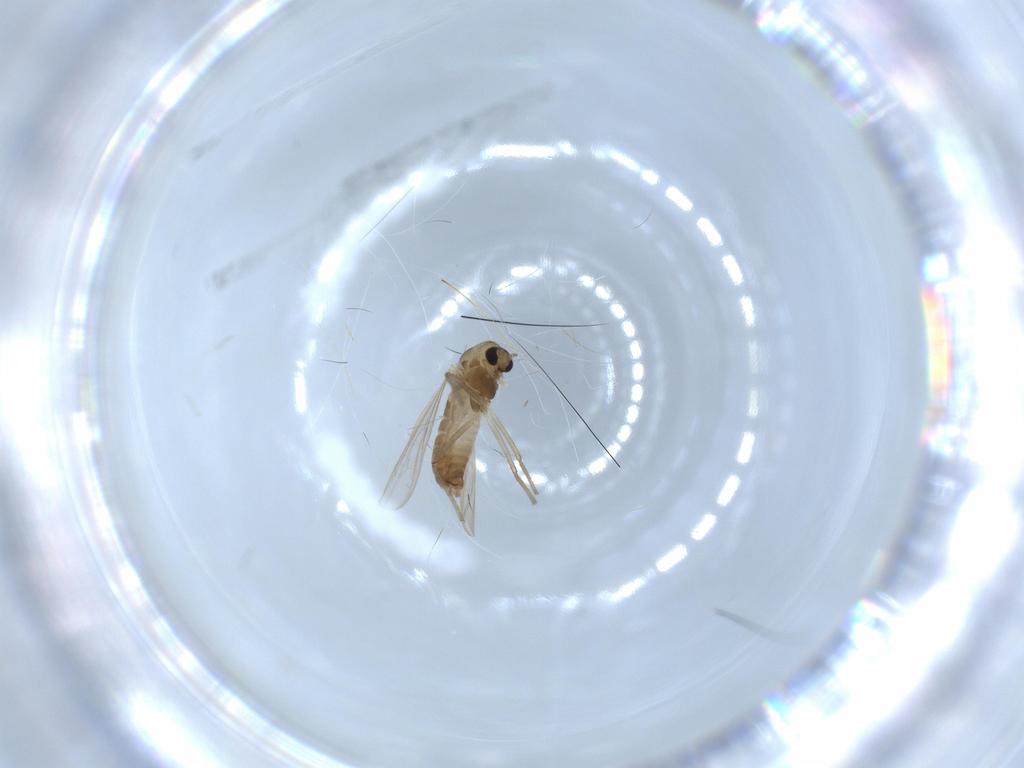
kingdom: Animalia
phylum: Arthropoda
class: Insecta
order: Diptera
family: Chironomidae
